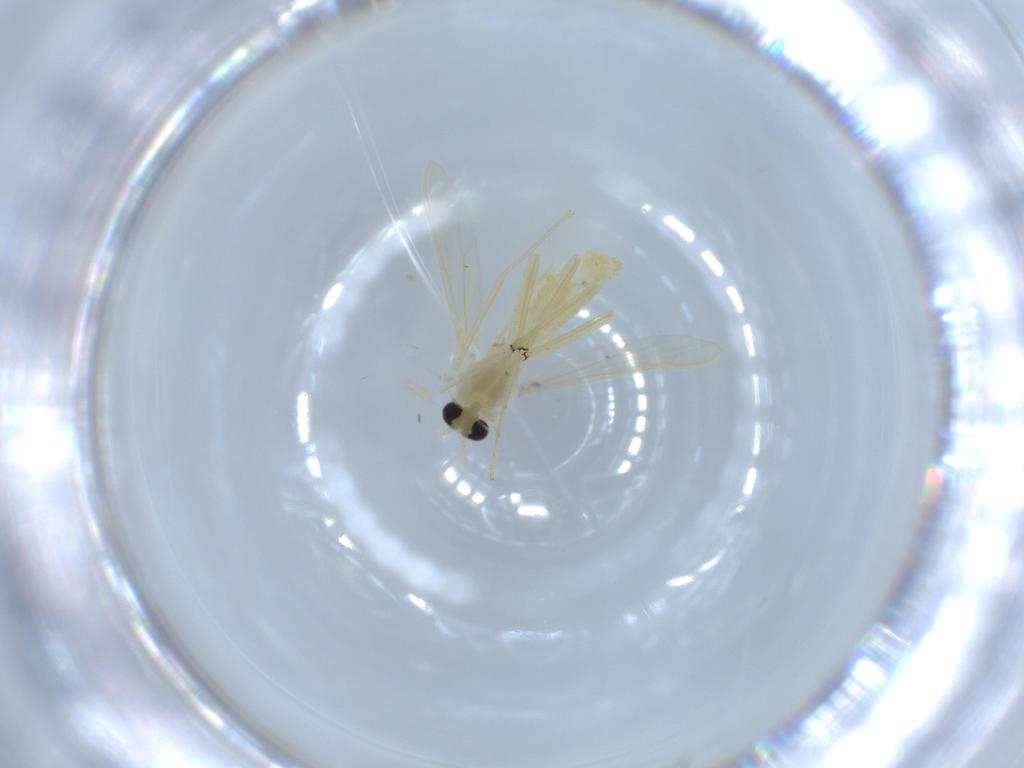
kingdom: Animalia
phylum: Arthropoda
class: Insecta
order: Diptera
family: Chironomidae
